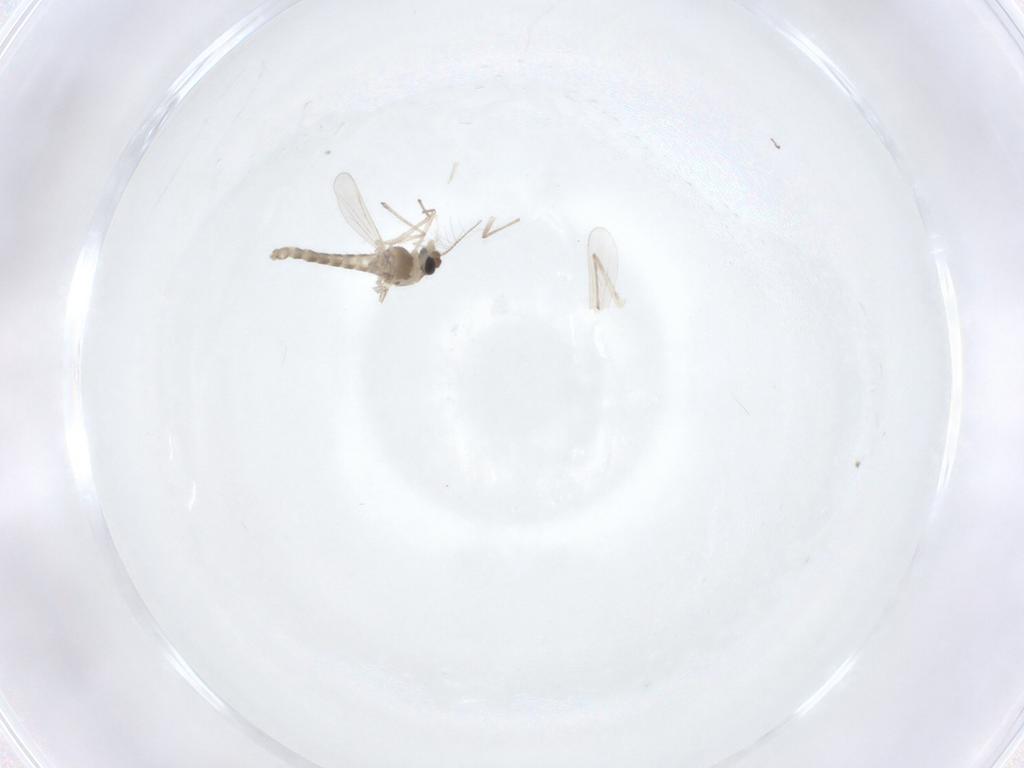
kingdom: Animalia
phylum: Arthropoda
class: Insecta
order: Diptera
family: Chironomidae
